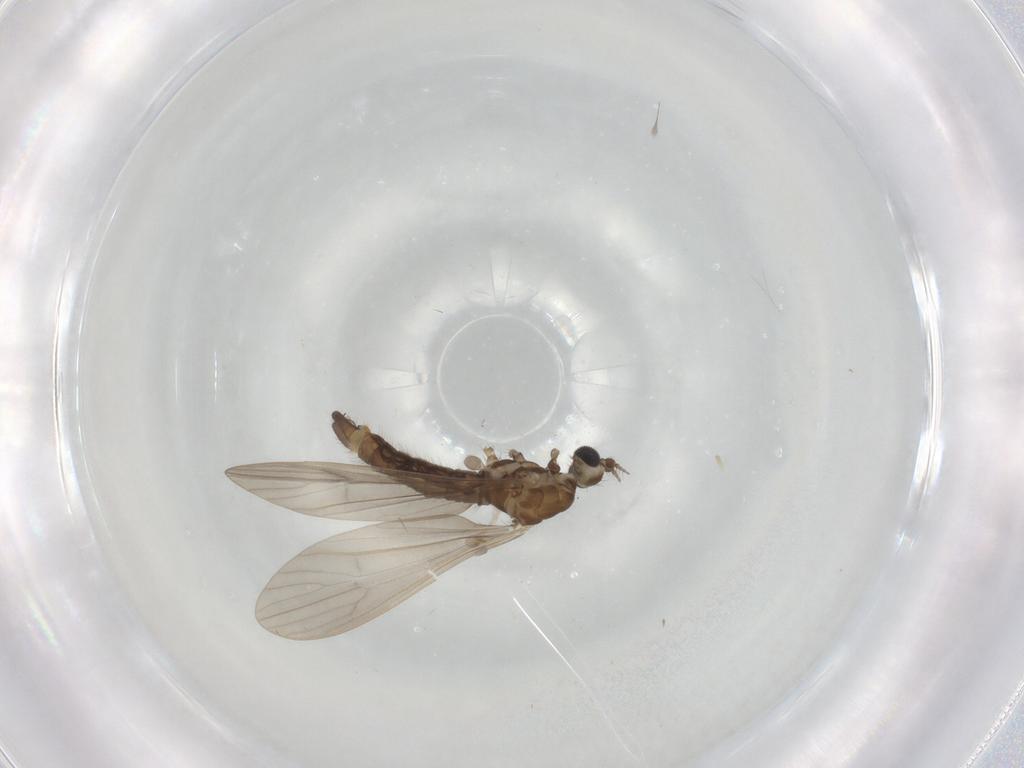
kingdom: Animalia
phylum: Arthropoda
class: Insecta
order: Diptera
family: Limoniidae
